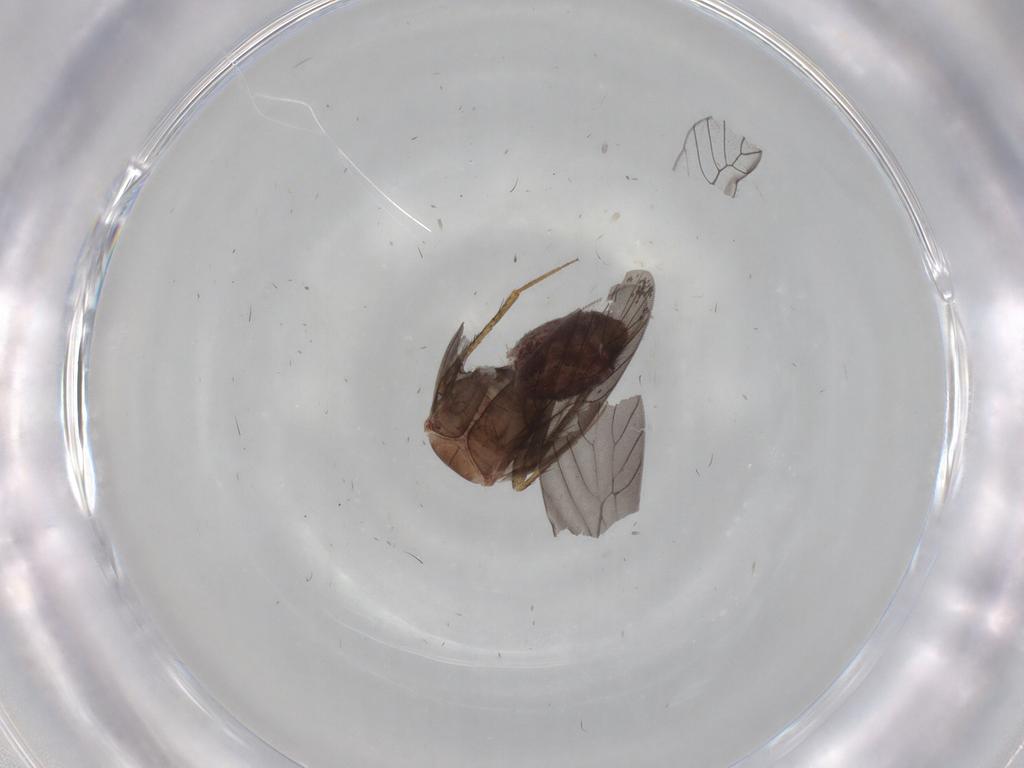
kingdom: Animalia
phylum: Arthropoda
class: Insecta
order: Psocodea
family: Lepidopsocidae
